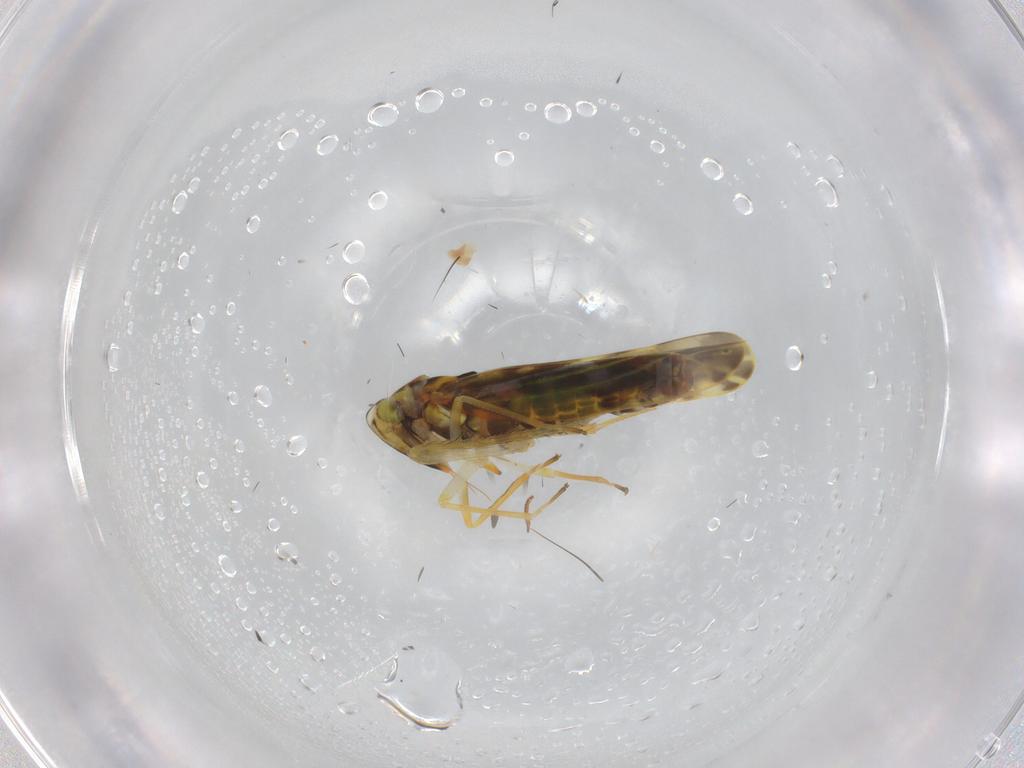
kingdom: Animalia
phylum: Arthropoda
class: Insecta
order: Hemiptera
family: Cicadellidae
